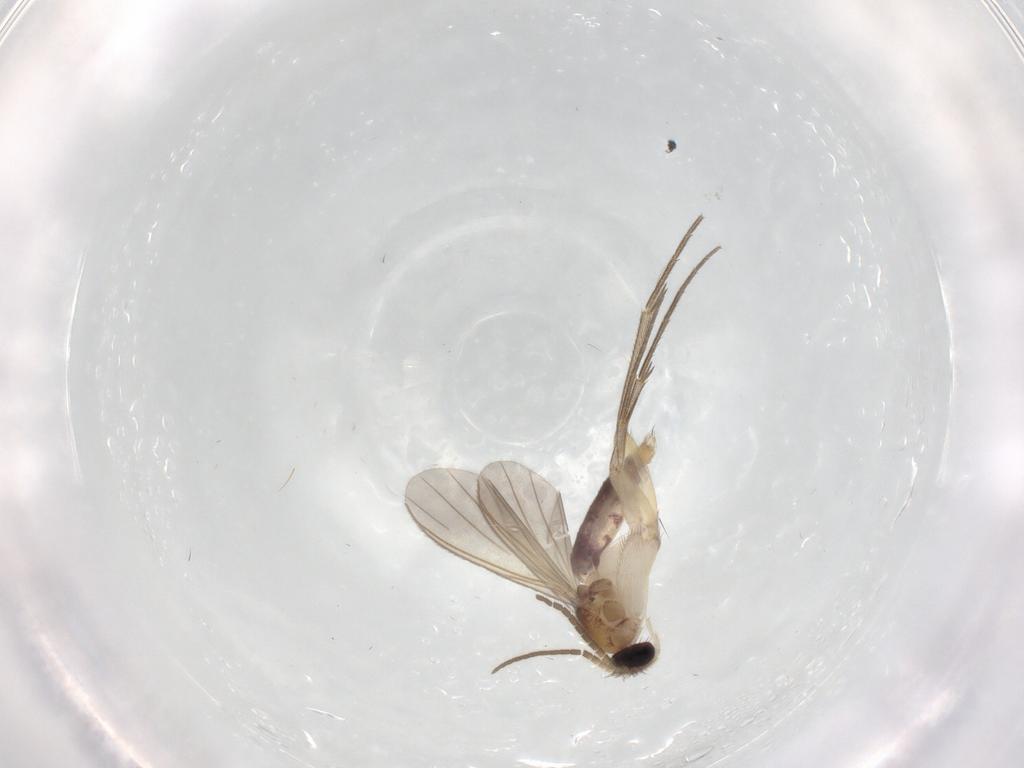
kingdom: Animalia
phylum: Arthropoda
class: Insecta
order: Diptera
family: Mycetophilidae
